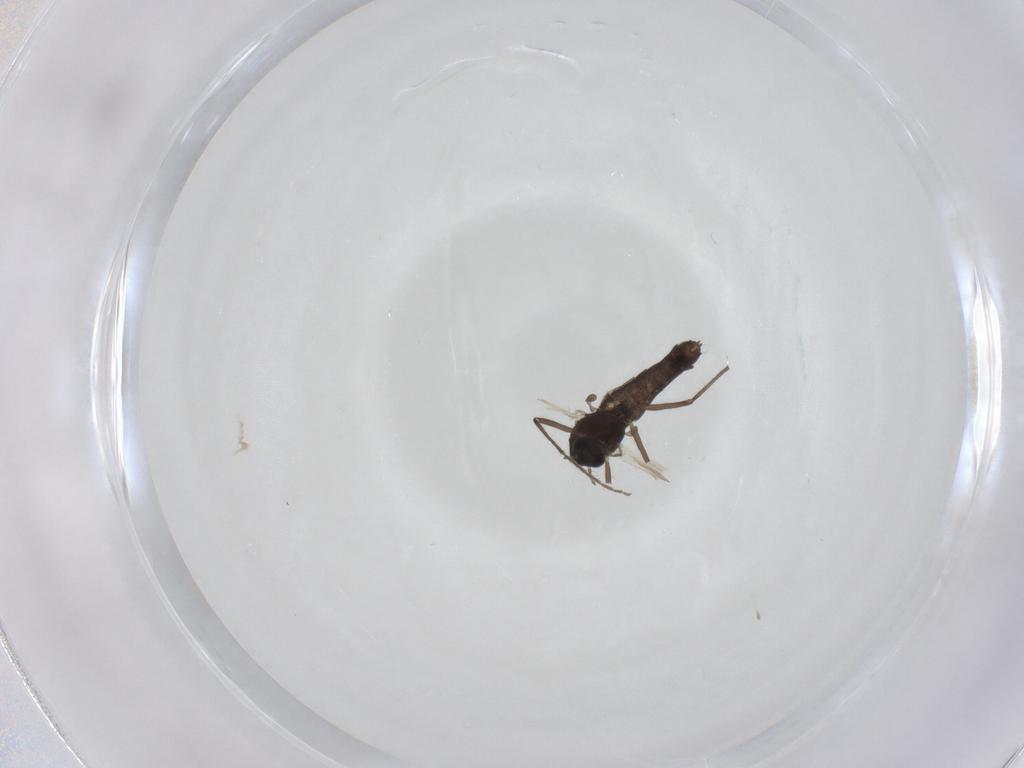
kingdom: Animalia
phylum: Arthropoda
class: Insecta
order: Diptera
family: Chironomidae
